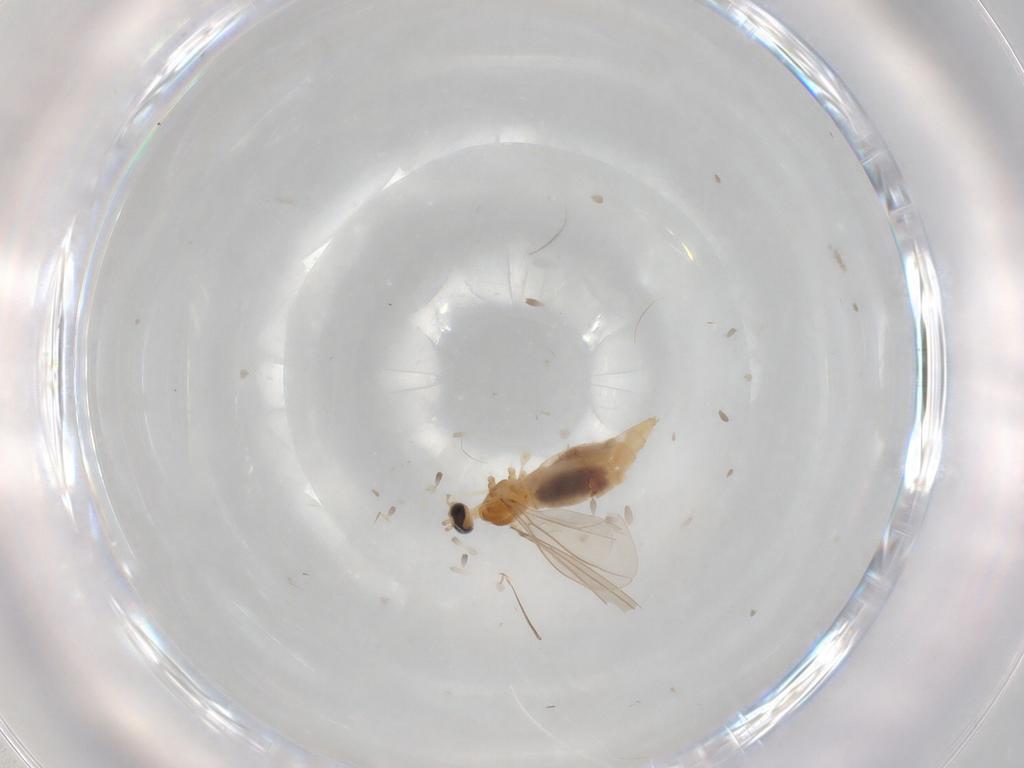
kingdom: Animalia
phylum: Arthropoda
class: Insecta
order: Diptera
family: Cecidomyiidae
